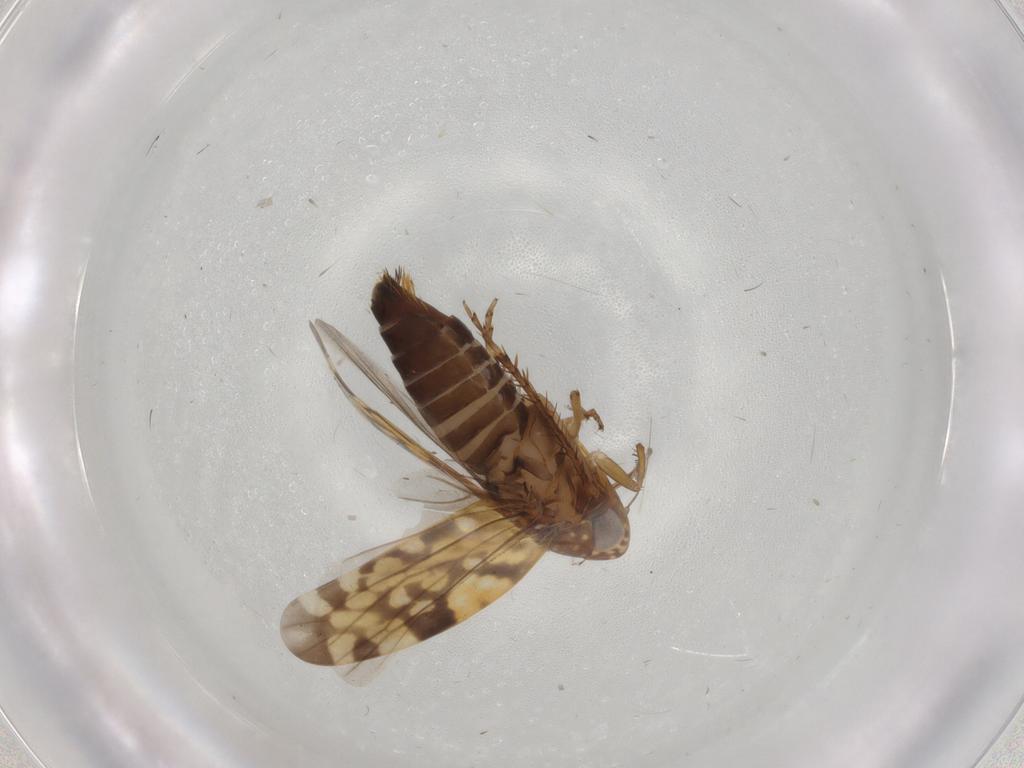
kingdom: Animalia
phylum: Arthropoda
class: Insecta
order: Hemiptera
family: Cicadellidae
